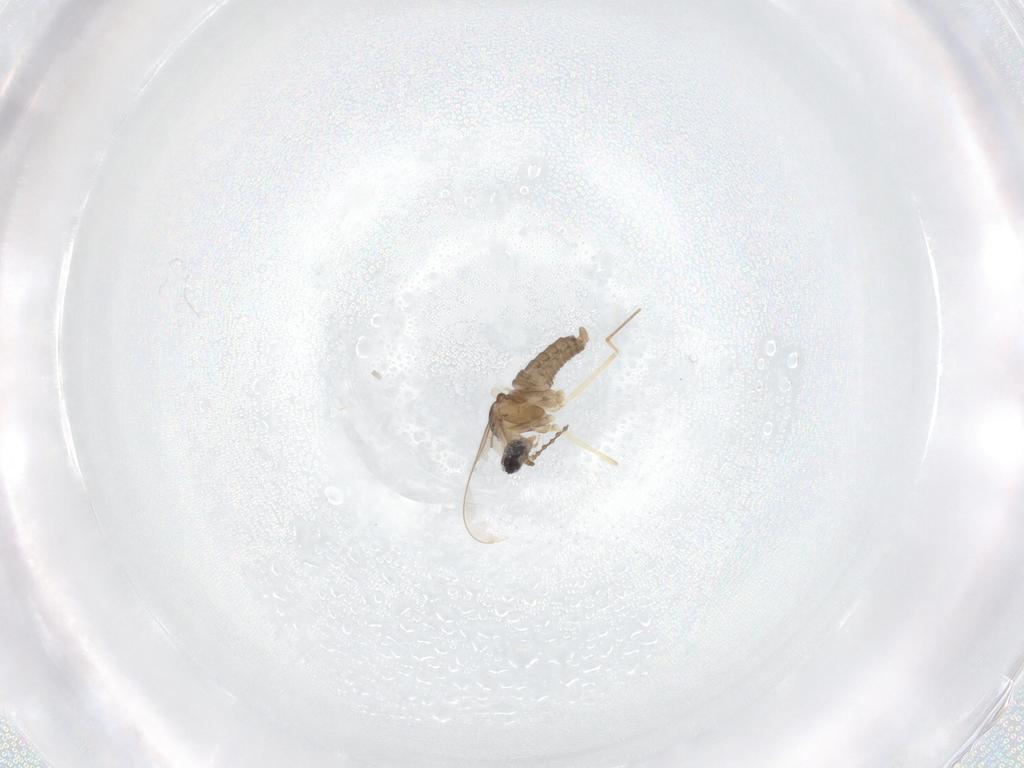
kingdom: Animalia
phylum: Arthropoda
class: Insecta
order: Diptera
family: Cecidomyiidae
